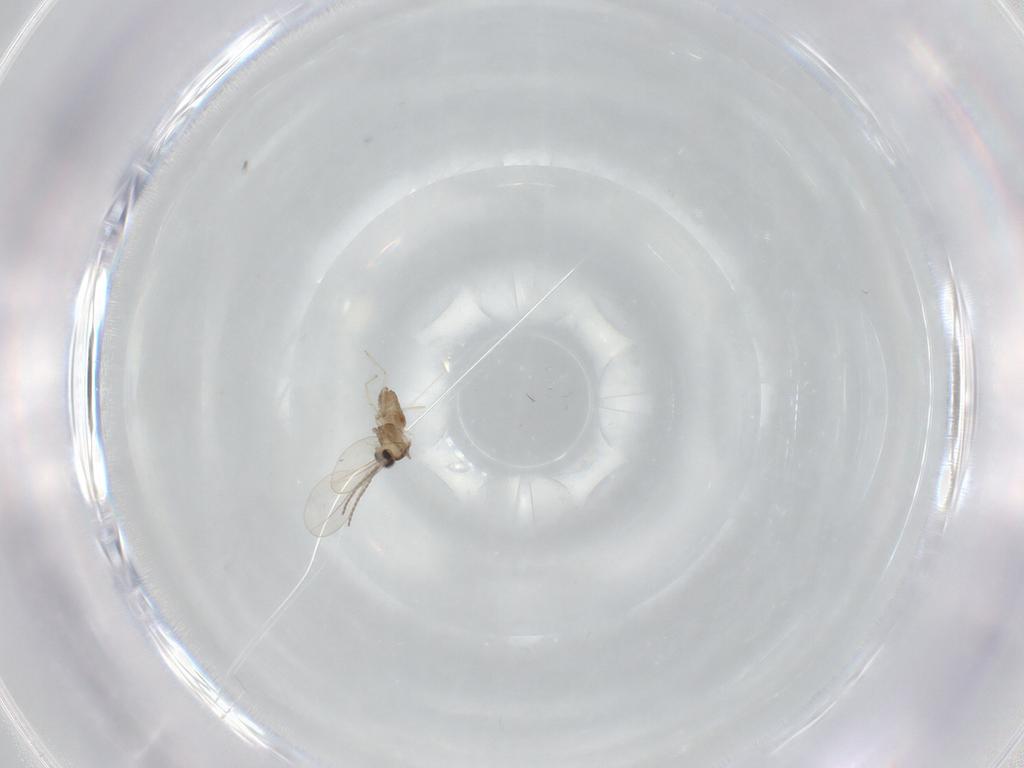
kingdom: Animalia
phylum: Arthropoda
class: Insecta
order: Diptera
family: Cecidomyiidae
